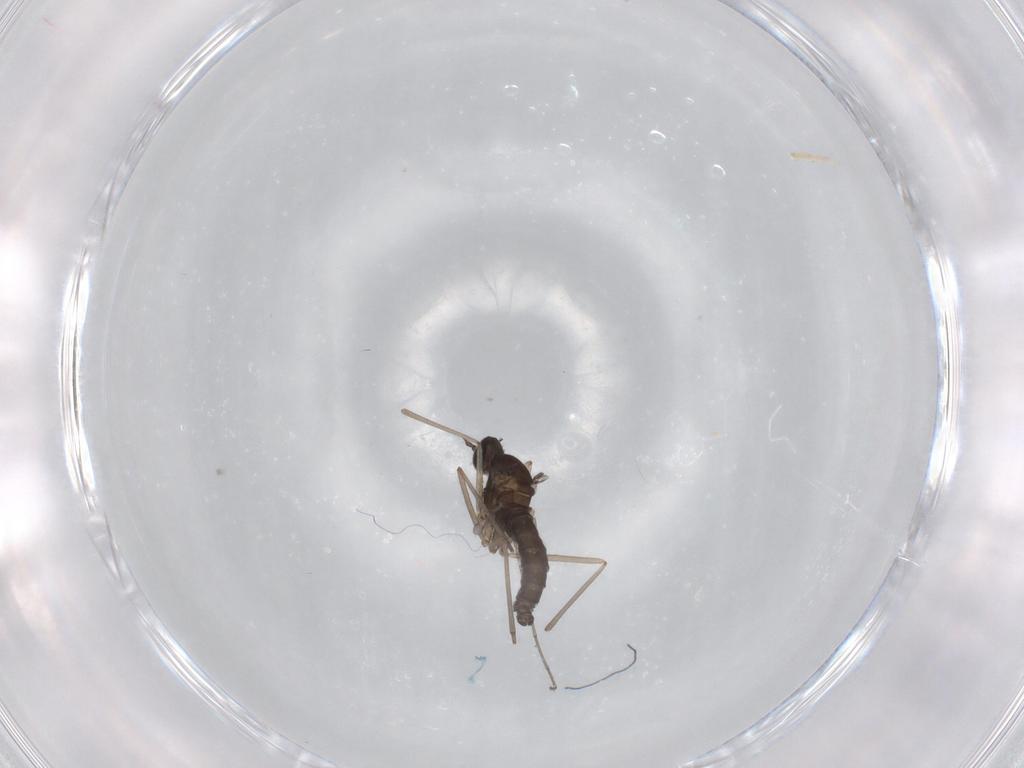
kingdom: Animalia
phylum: Arthropoda
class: Insecta
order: Diptera
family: Cecidomyiidae
